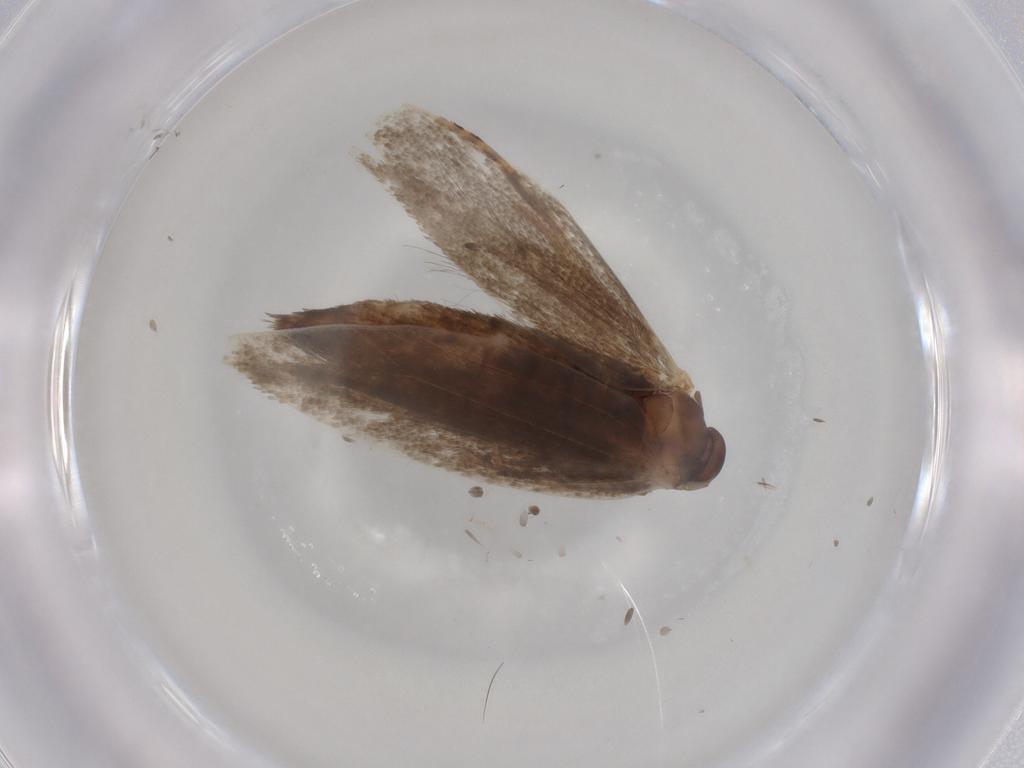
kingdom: Animalia
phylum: Arthropoda
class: Insecta
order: Lepidoptera
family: Elachistidae
